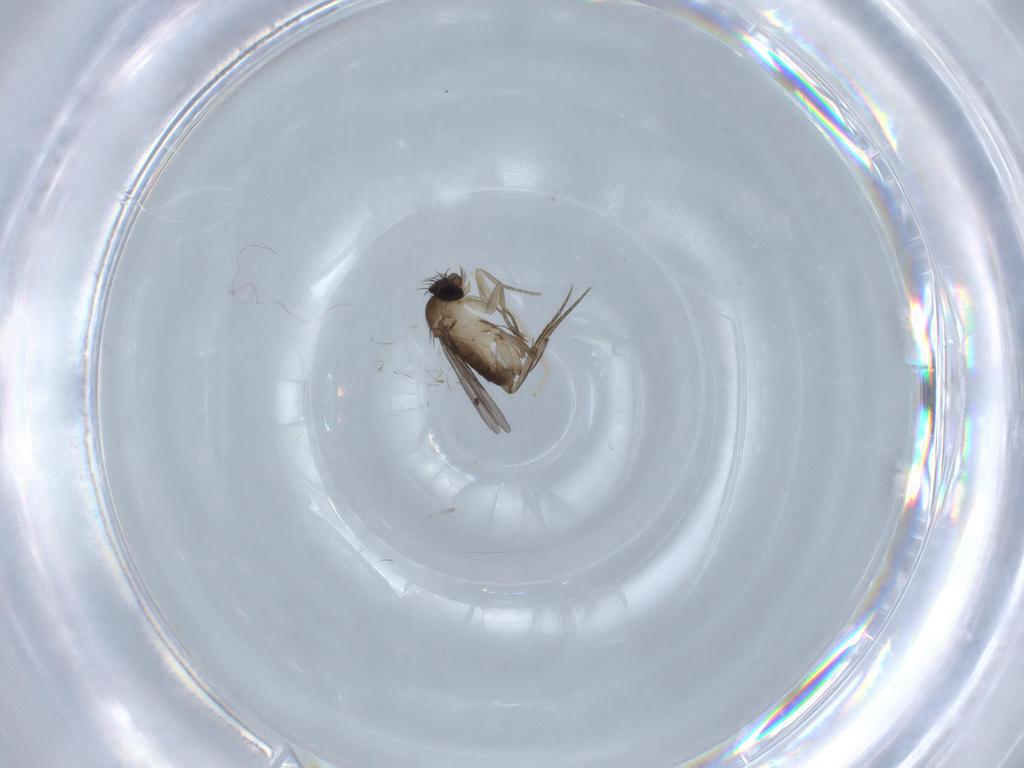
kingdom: Animalia
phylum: Arthropoda
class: Insecta
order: Diptera
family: Phoridae
